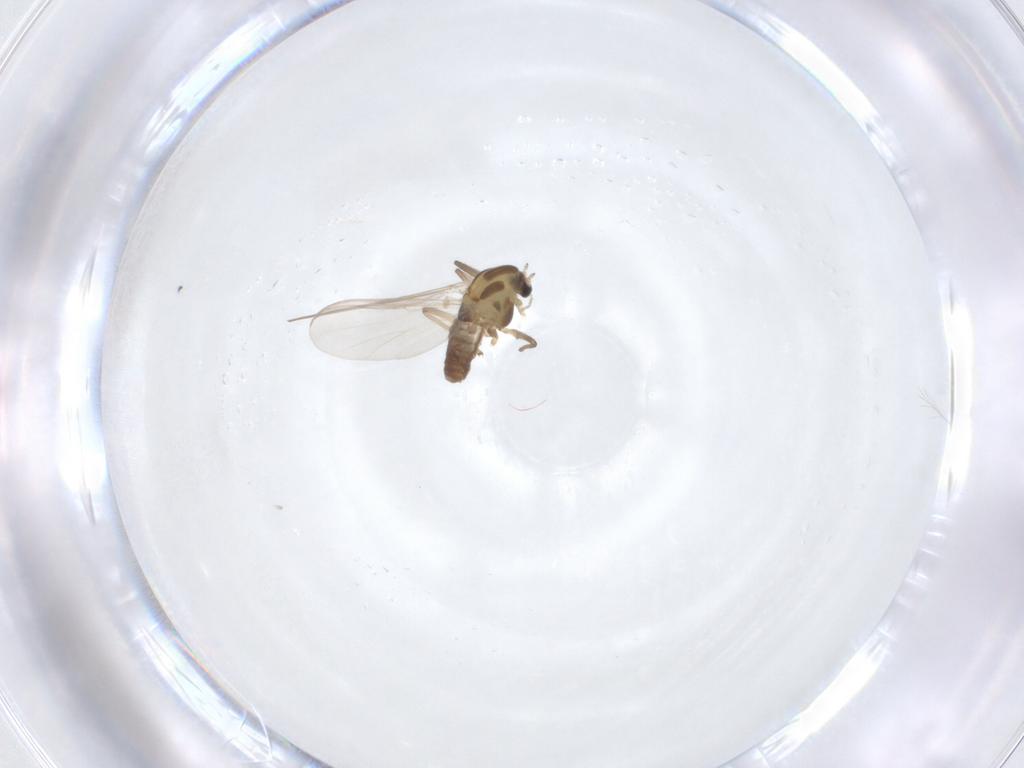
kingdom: Animalia
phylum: Arthropoda
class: Insecta
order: Diptera
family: Chironomidae
